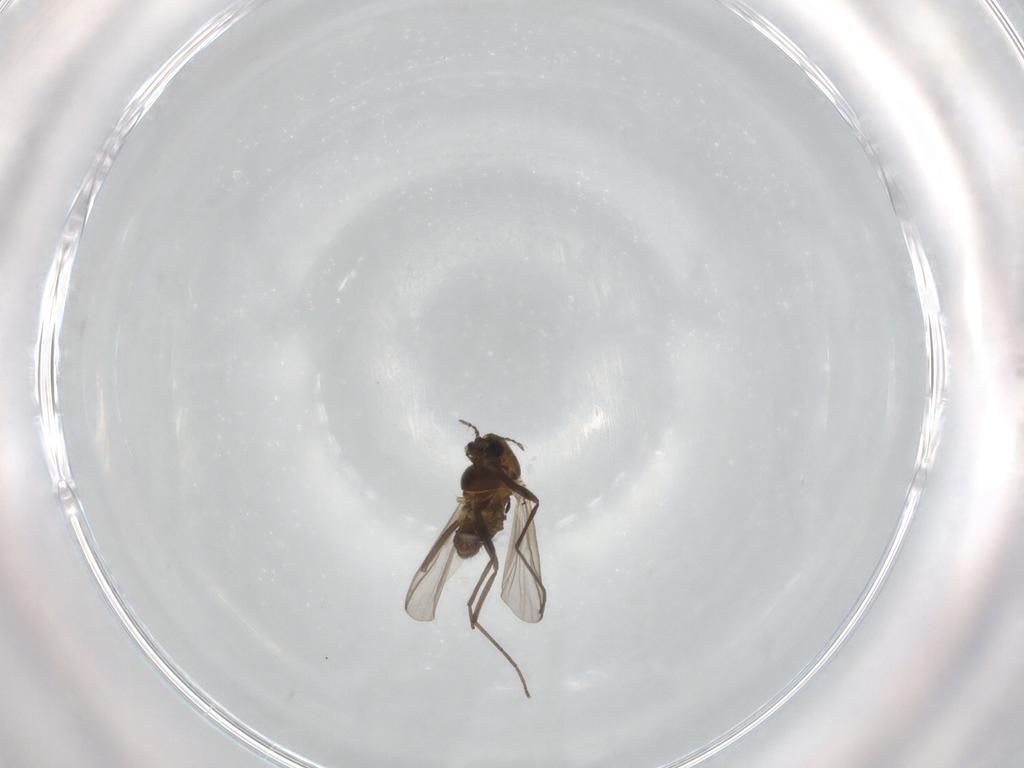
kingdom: Animalia
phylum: Arthropoda
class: Insecta
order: Diptera
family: Chironomidae
